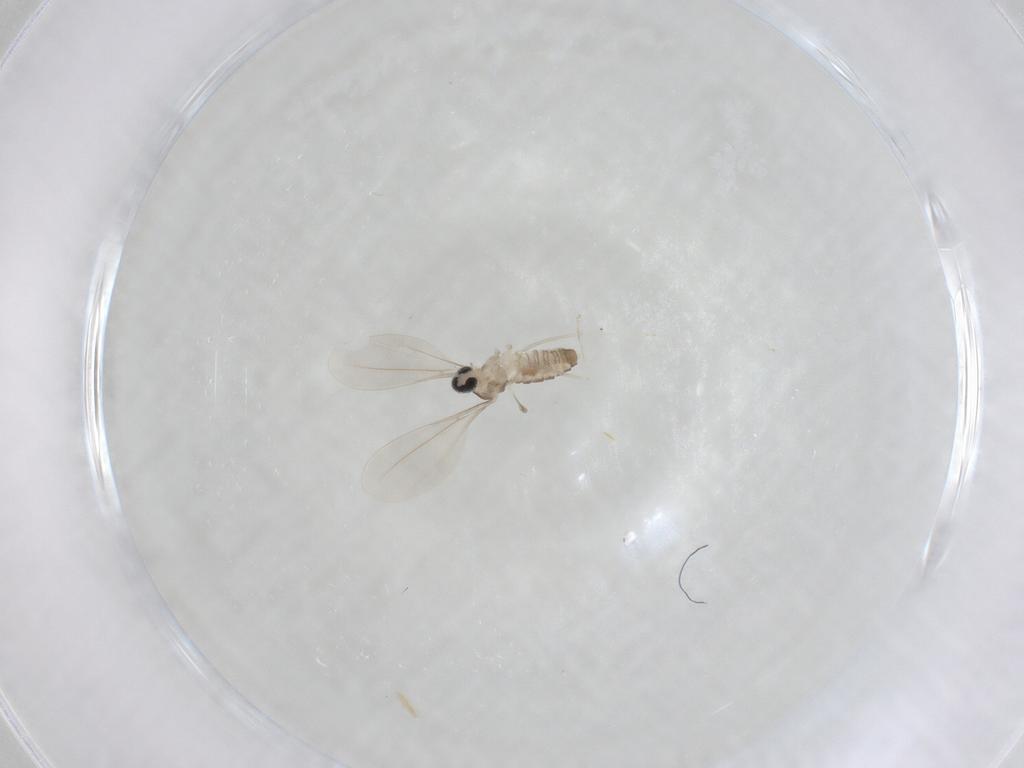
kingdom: Animalia
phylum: Arthropoda
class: Insecta
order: Diptera
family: Cecidomyiidae
